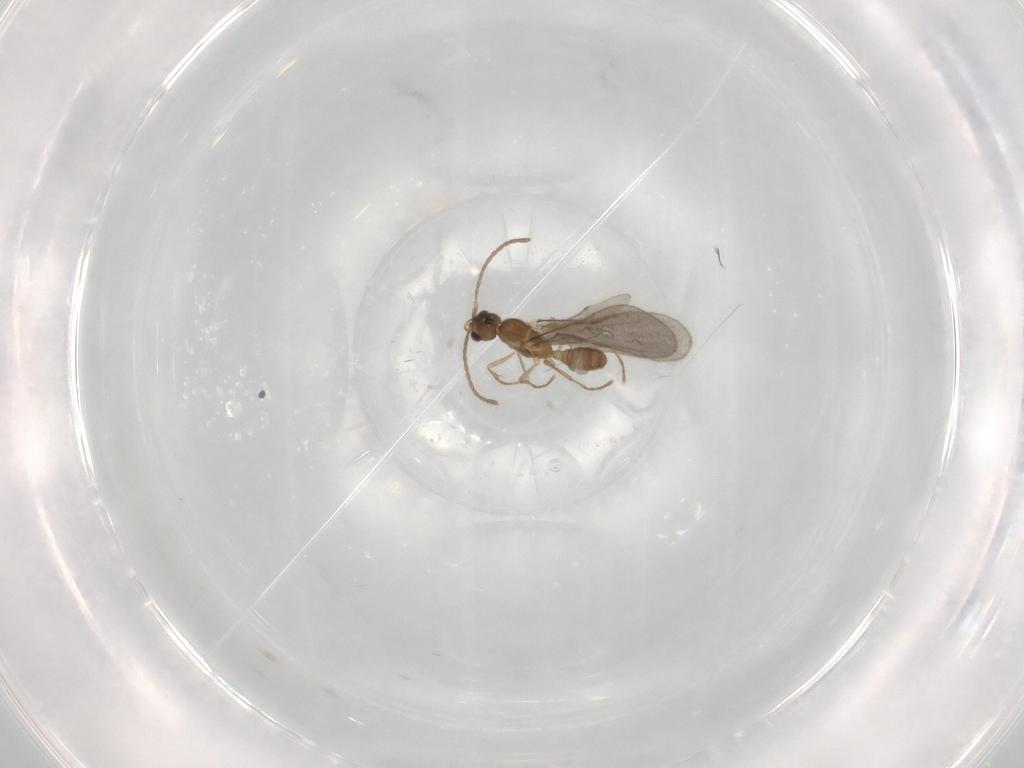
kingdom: Animalia
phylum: Arthropoda
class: Insecta
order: Hymenoptera
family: Formicidae
